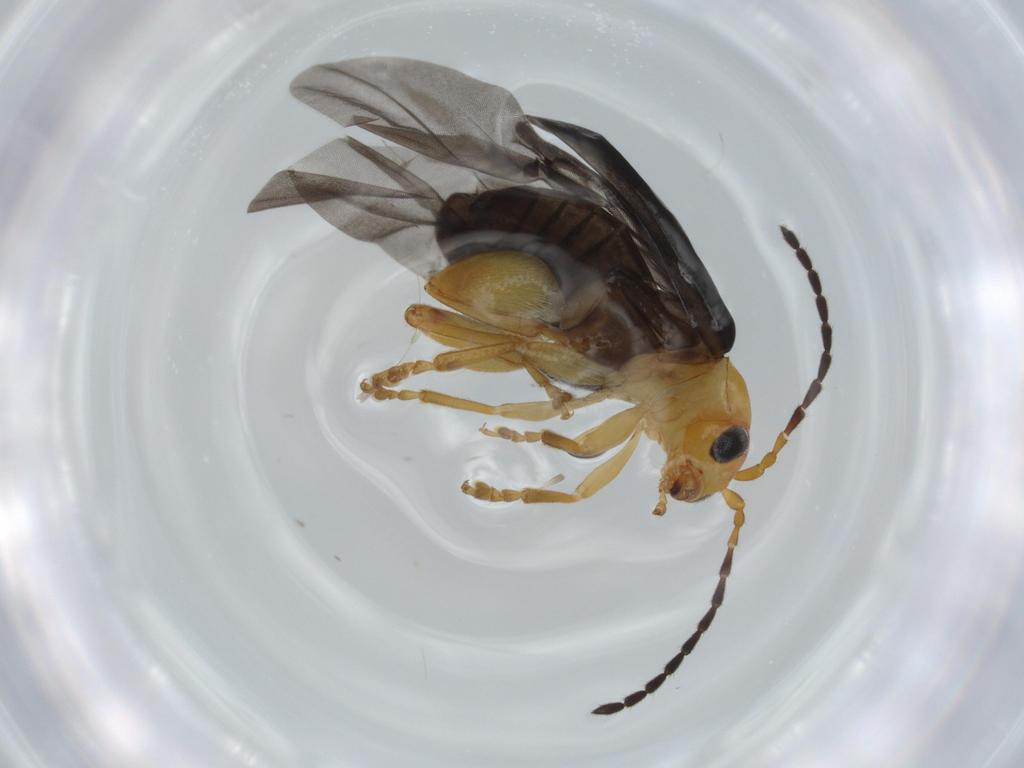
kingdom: Animalia
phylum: Arthropoda
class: Insecta
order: Coleoptera
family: Chrysomelidae
